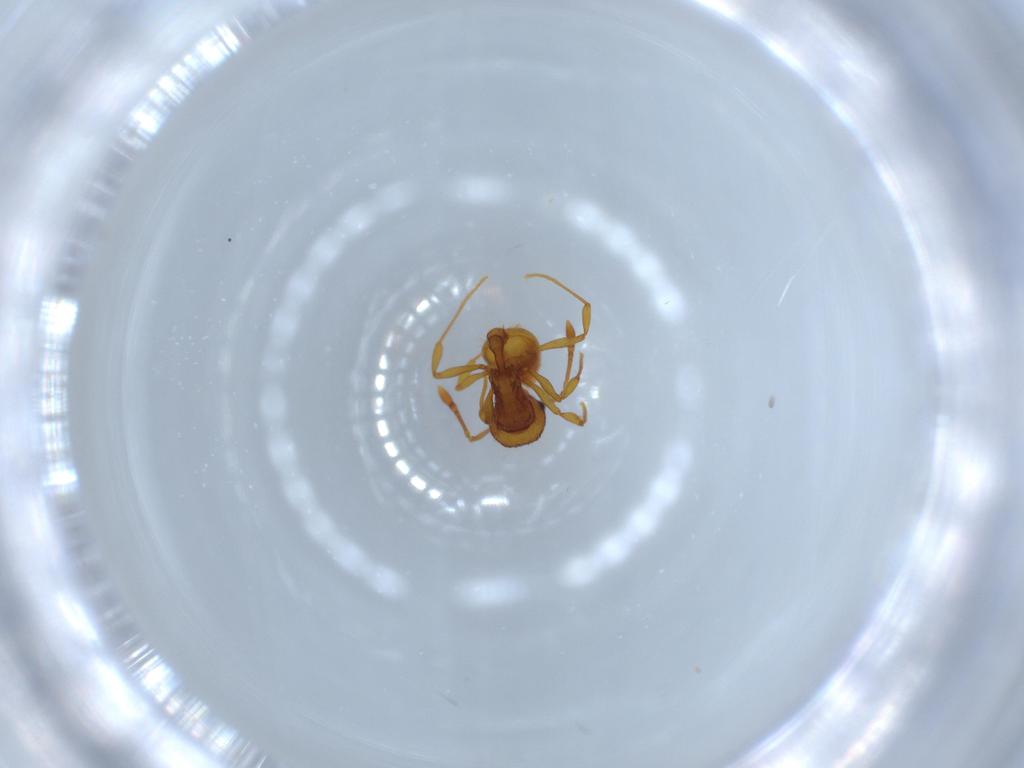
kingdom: Animalia
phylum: Arthropoda
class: Insecta
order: Hymenoptera
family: Formicidae
